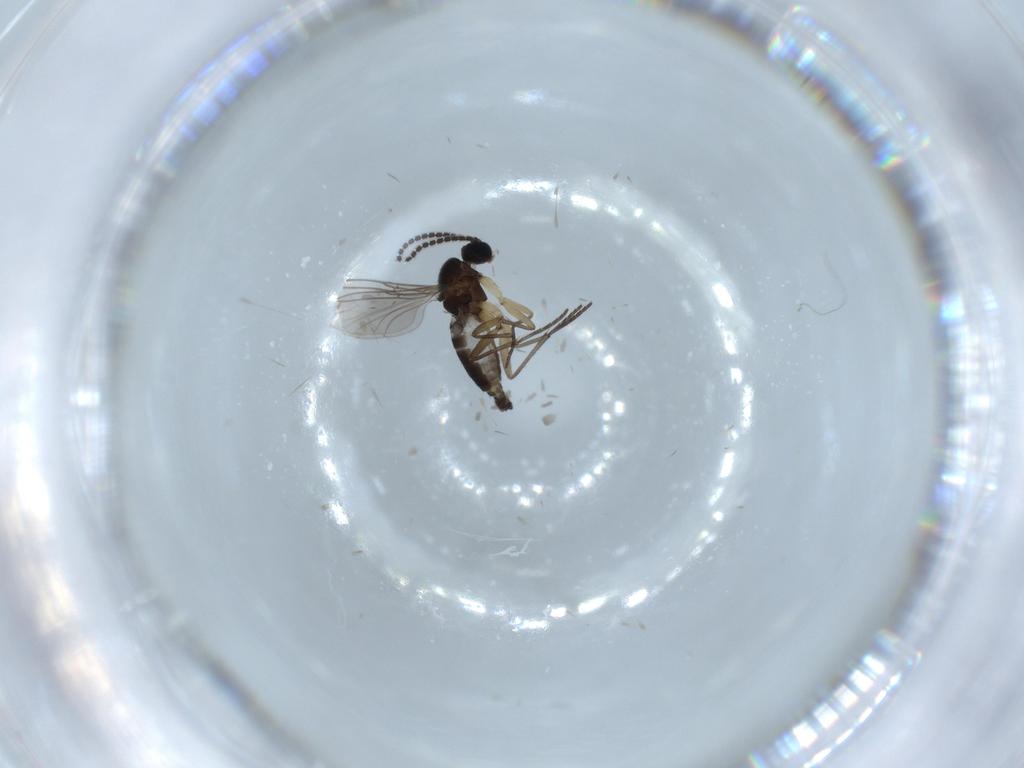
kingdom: Animalia
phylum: Arthropoda
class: Insecta
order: Diptera
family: Sciaridae
